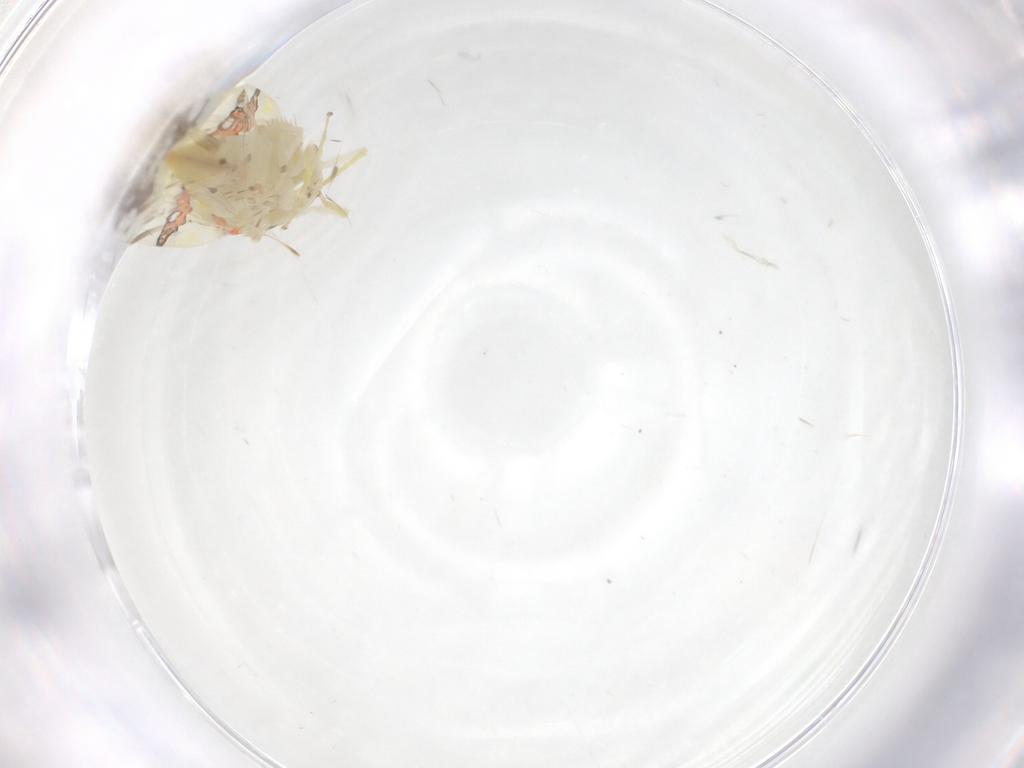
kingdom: Animalia
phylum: Arthropoda
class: Insecta
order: Hemiptera
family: Cicadellidae
